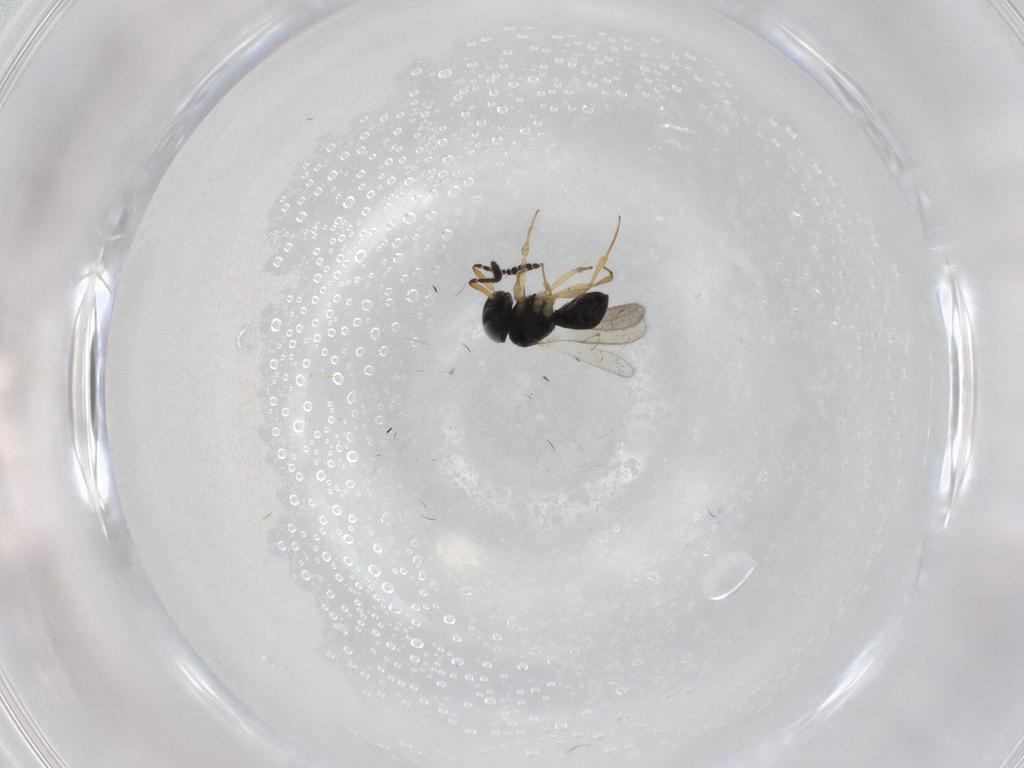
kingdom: Animalia
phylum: Arthropoda
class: Insecta
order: Hymenoptera
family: Scelionidae
